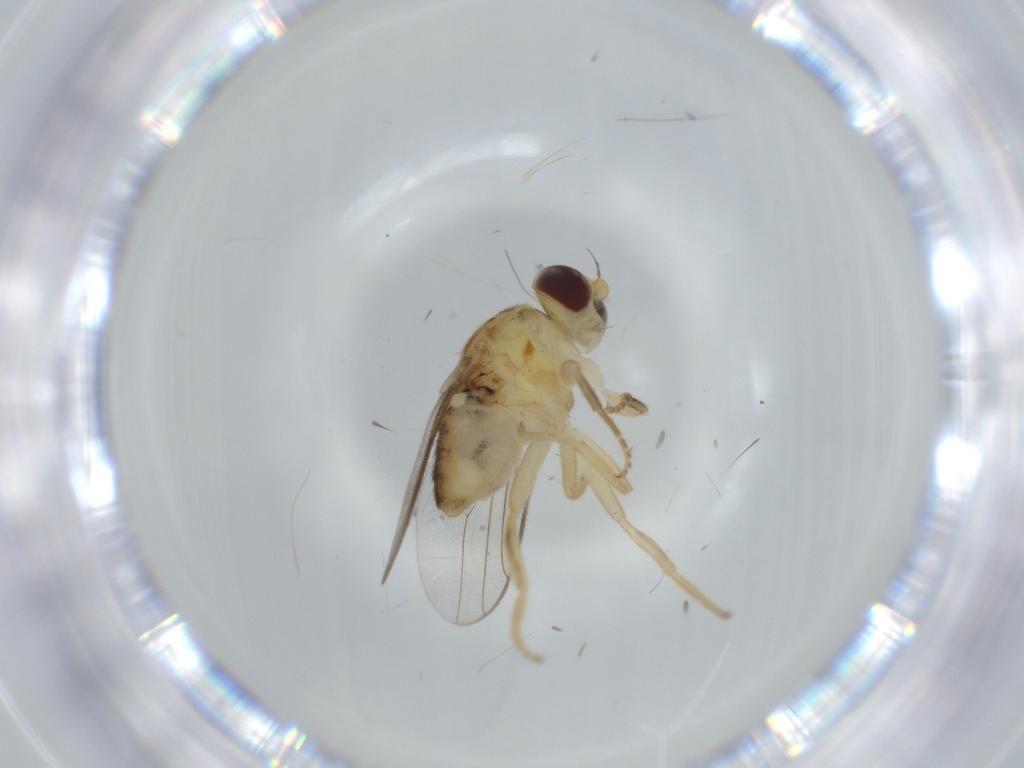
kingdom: Animalia
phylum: Arthropoda
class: Insecta
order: Diptera
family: Chloropidae
